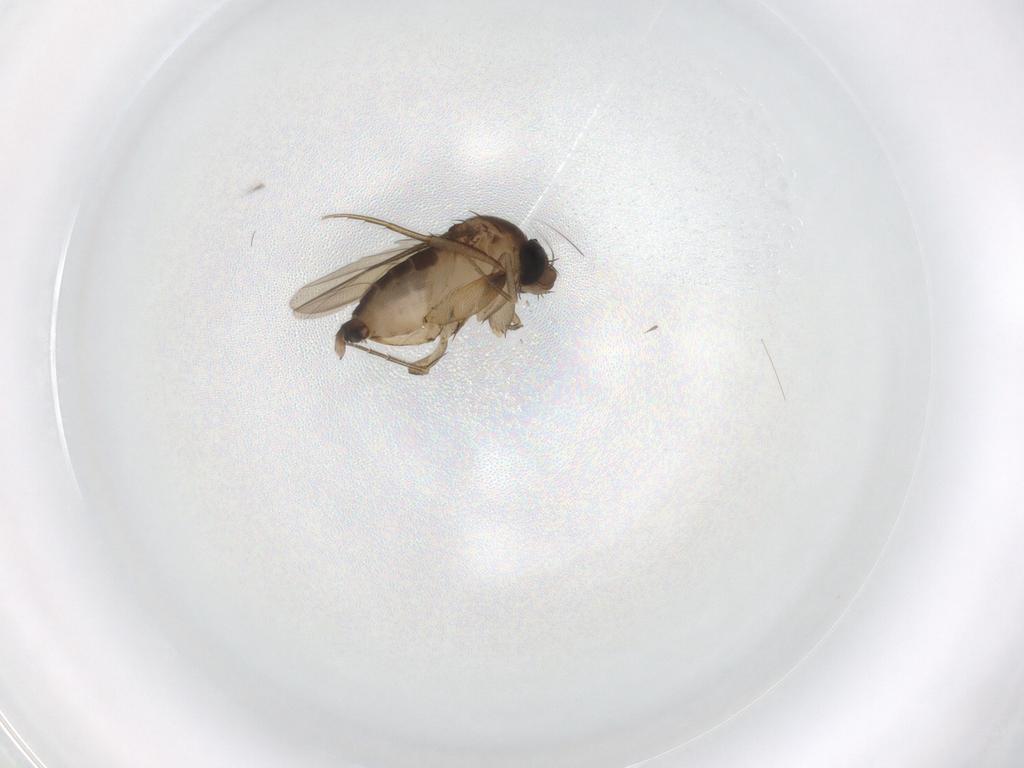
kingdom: Animalia
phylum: Arthropoda
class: Insecta
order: Diptera
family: Phoridae
